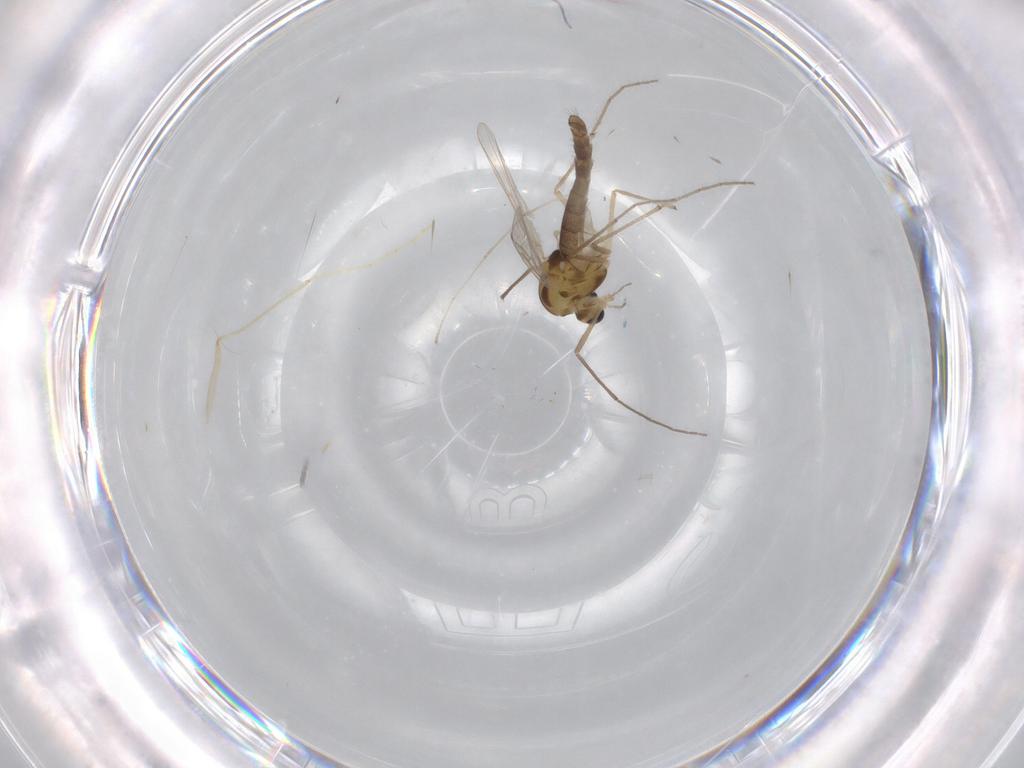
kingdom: Animalia
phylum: Arthropoda
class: Insecta
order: Diptera
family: Chironomidae
